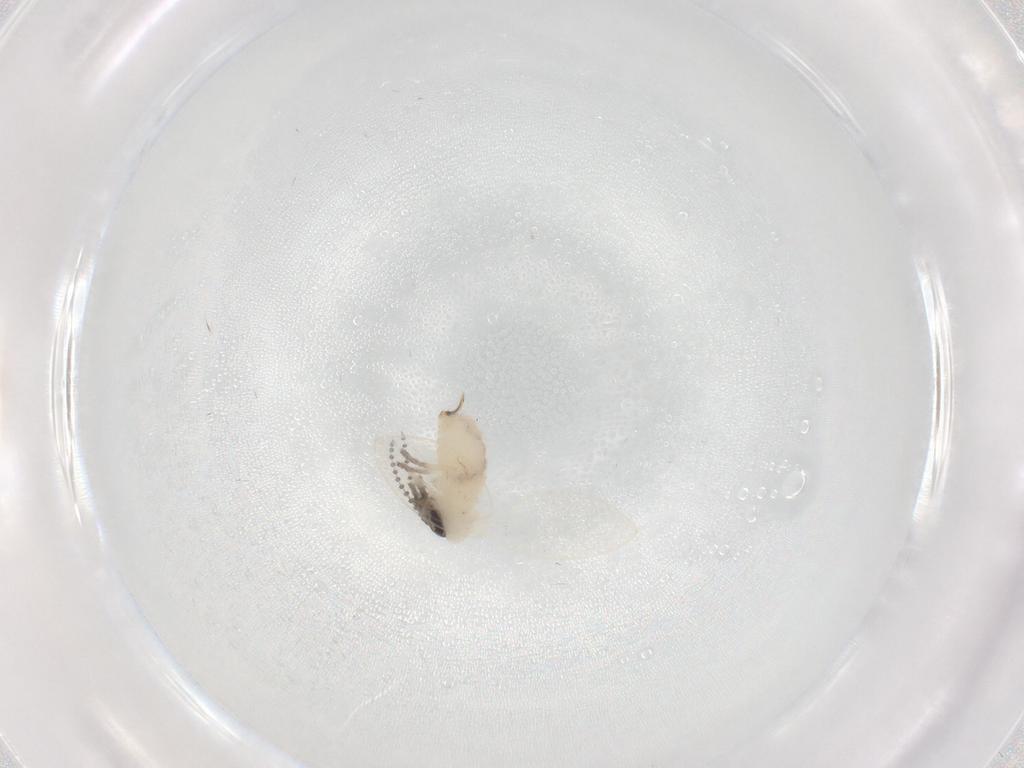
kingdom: Animalia
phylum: Arthropoda
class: Insecta
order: Diptera
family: Psychodidae
